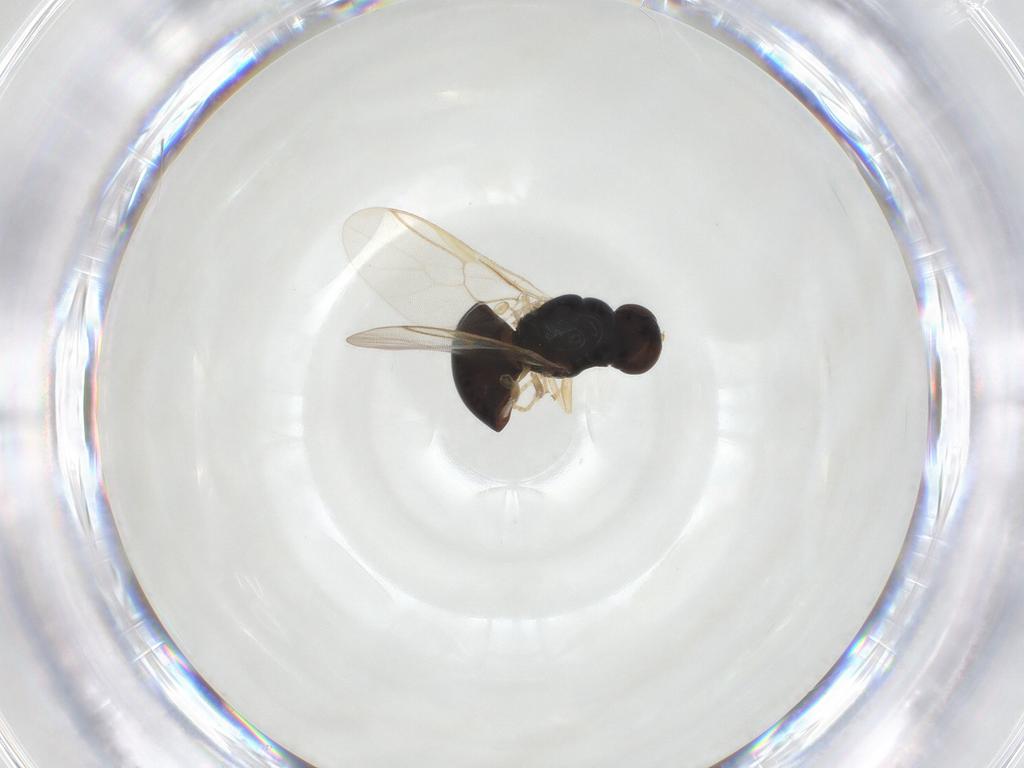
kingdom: Animalia
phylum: Arthropoda
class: Insecta
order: Diptera
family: Stratiomyidae
